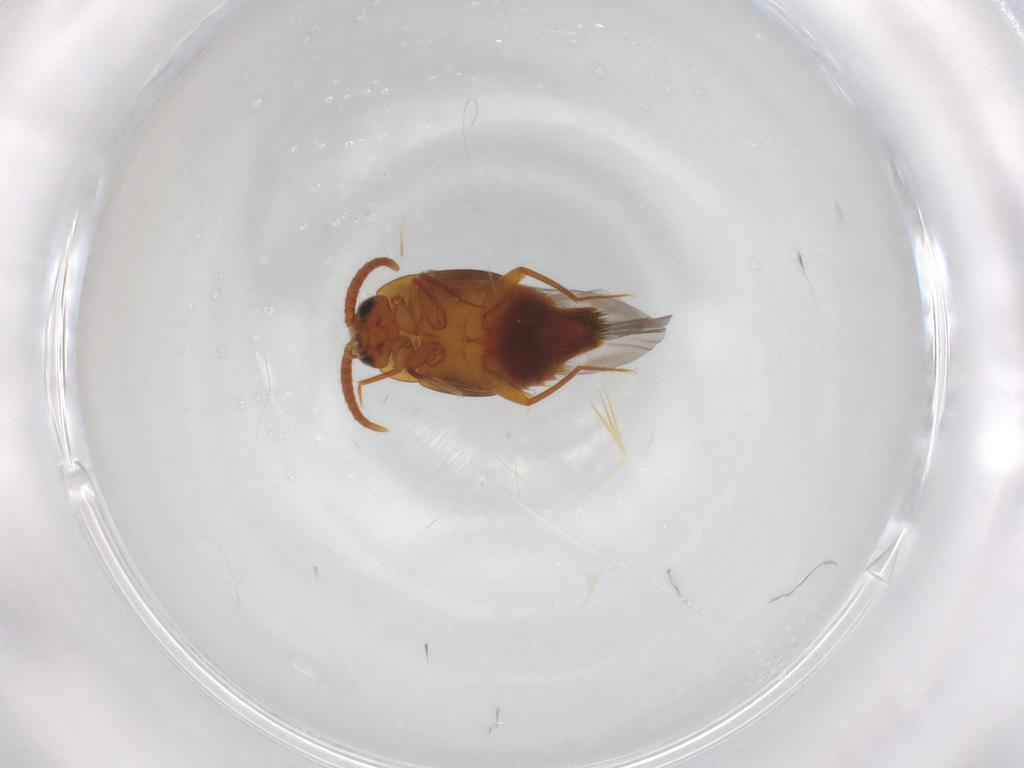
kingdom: Animalia
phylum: Arthropoda
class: Insecta
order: Coleoptera
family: Staphylinidae
